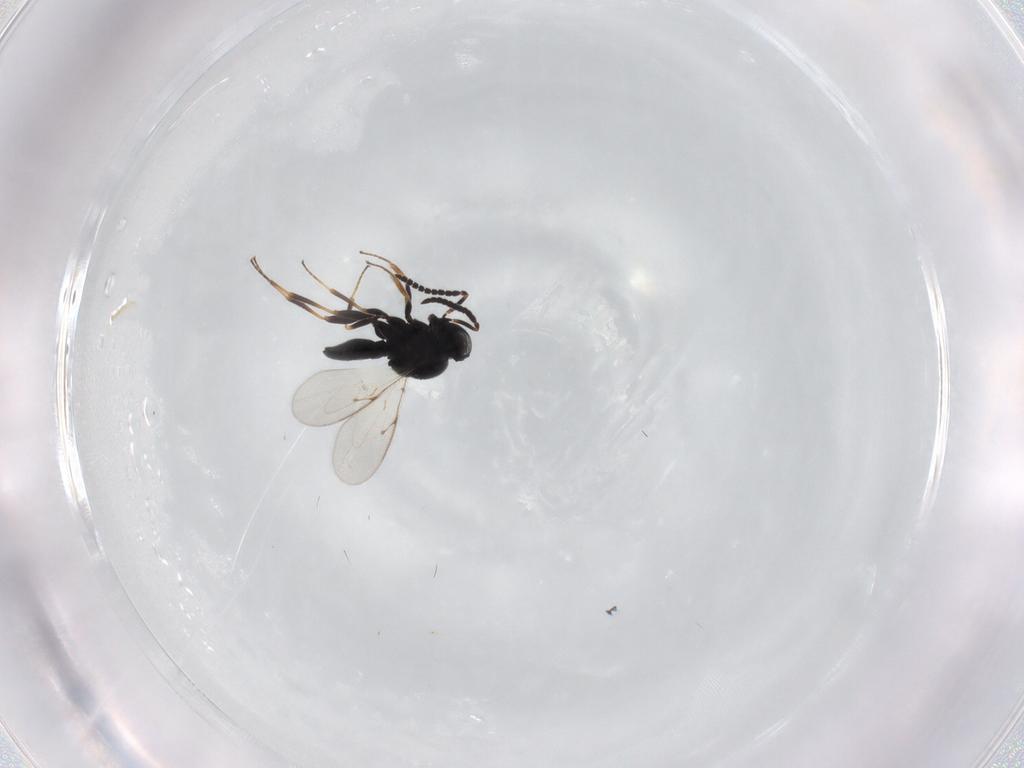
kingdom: Animalia
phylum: Arthropoda
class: Insecta
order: Hymenoptera
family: Scelionidae
